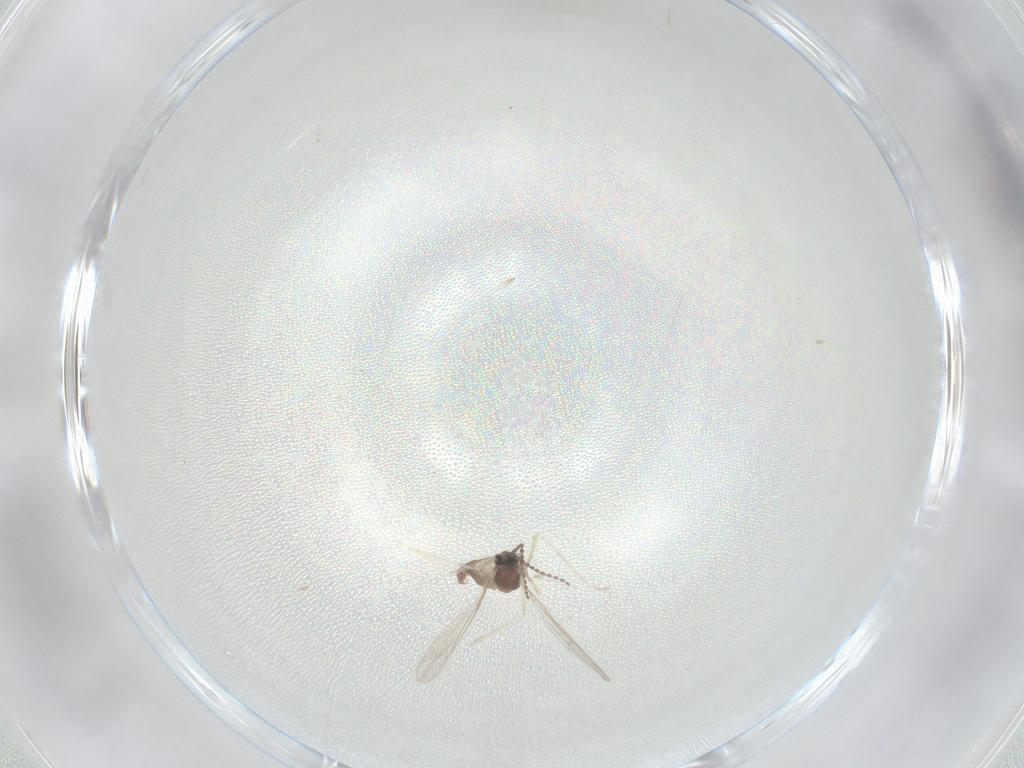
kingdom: Animalia
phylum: Arthropoda
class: Insecta
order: Diptera
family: Cecidomyiidae
